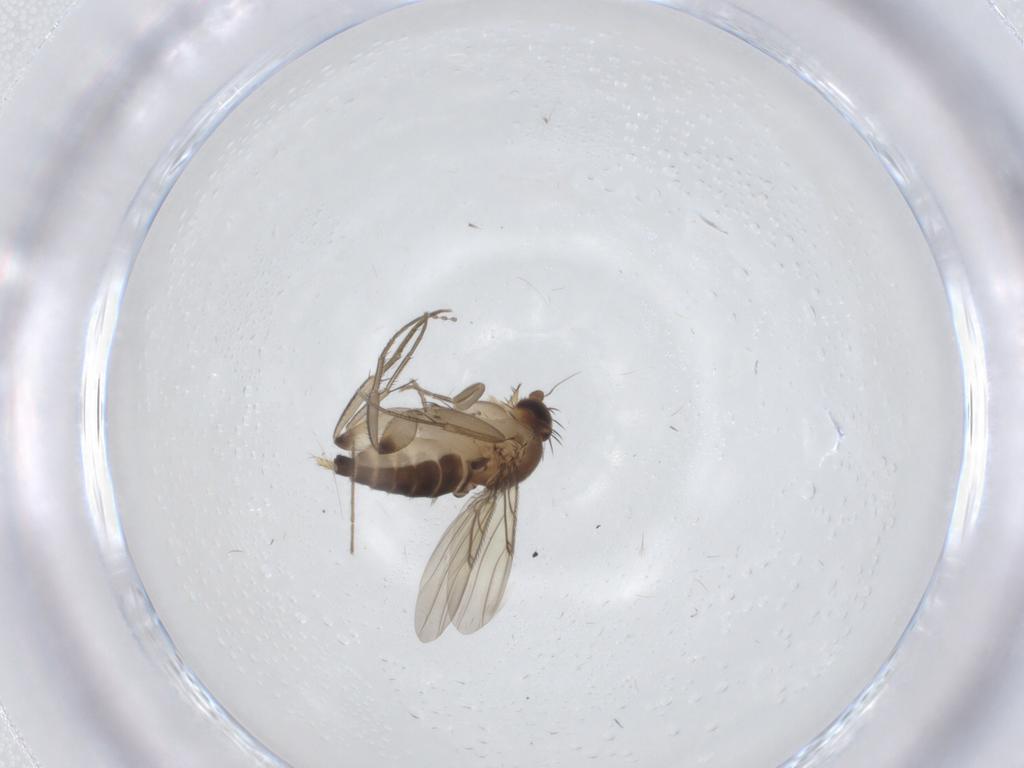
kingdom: Animalia
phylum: Arthropoda
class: Insecta
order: Diptera
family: Cecidomyiidae
